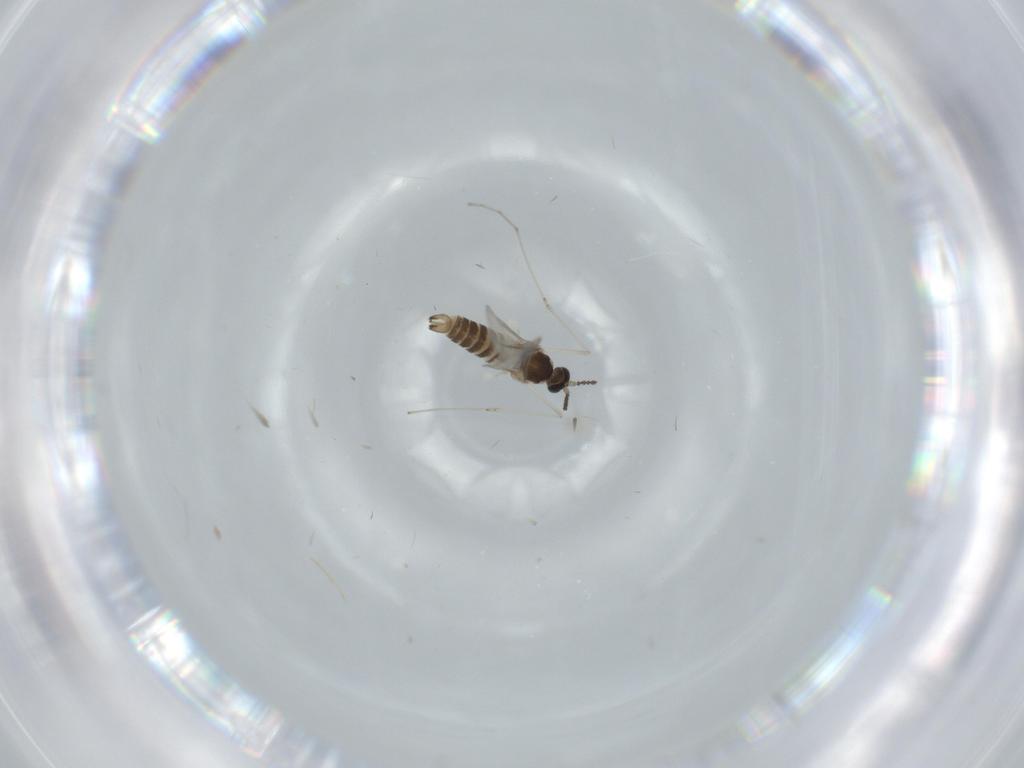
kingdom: Animalia
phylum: Arthropoda
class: Insecta
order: Diptera
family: Cecidomyiidae
